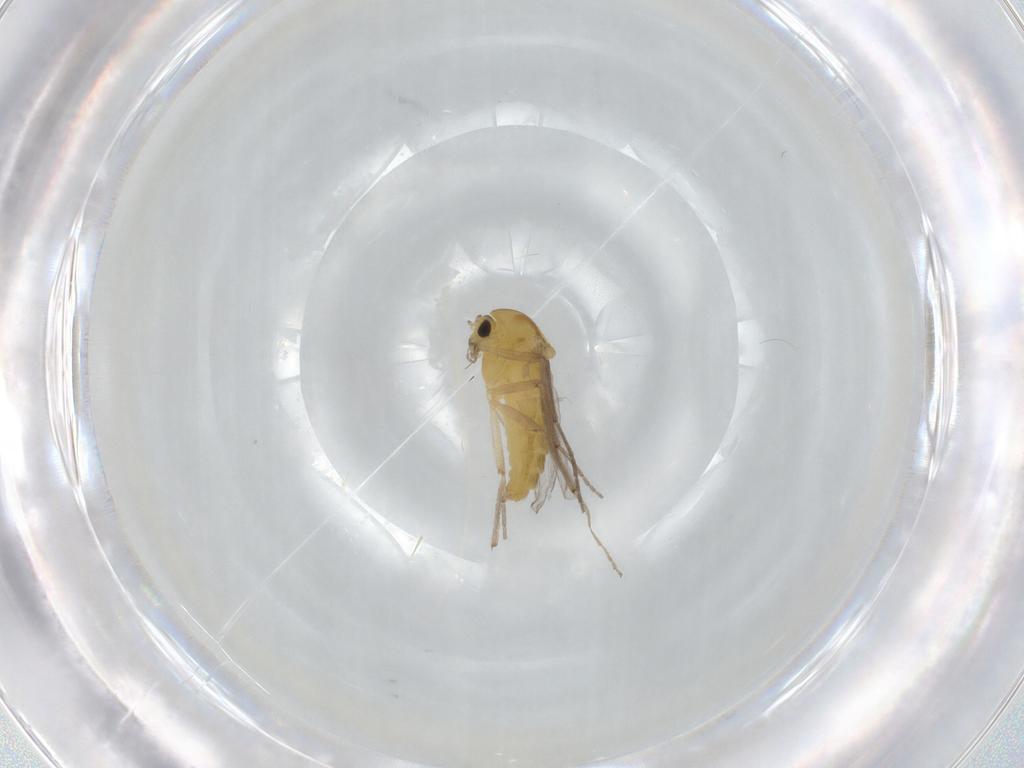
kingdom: Animalia
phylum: Arthropoda
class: Insecta
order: Diptera
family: Chironomidae
